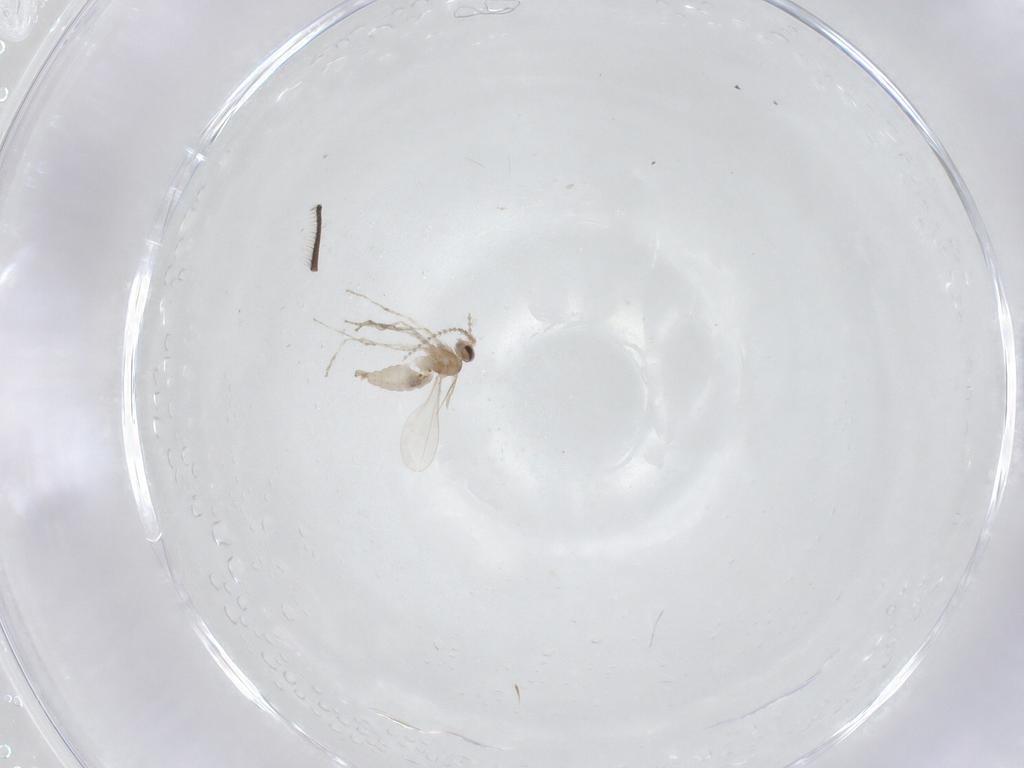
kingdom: Animalia
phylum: Arthropoda
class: Insecta
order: Diptera
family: Cecidomyiidae
